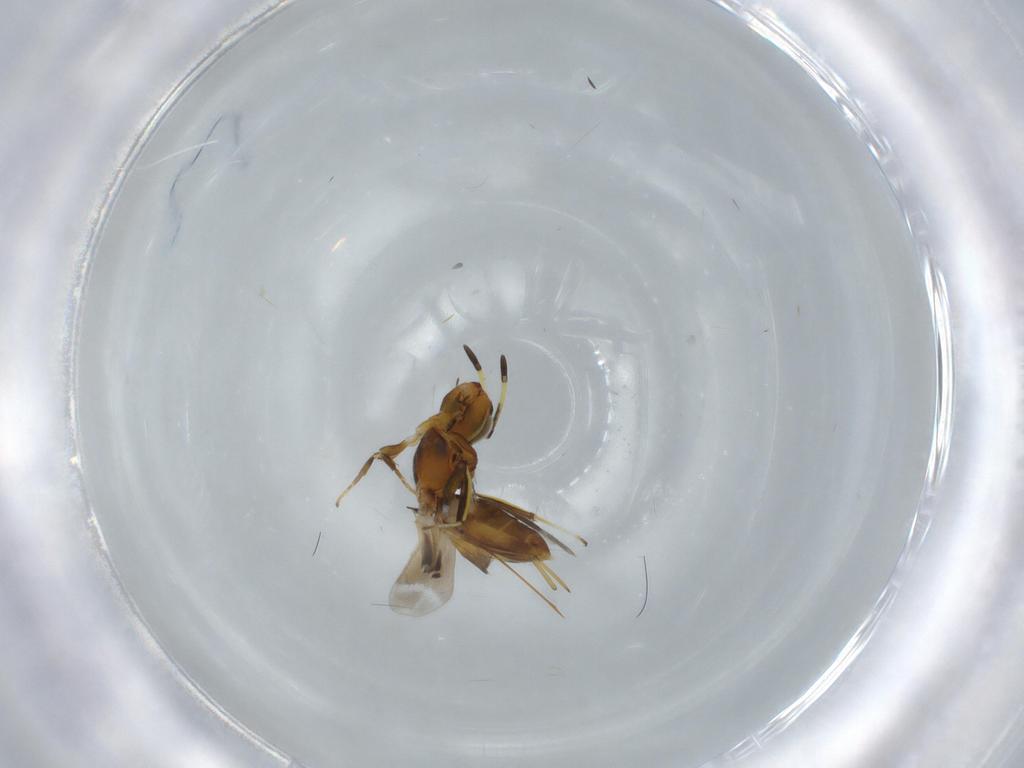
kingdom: Animalia
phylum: Arthropoda
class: Insecta
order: Hymenoptera
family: Eupelmidae
